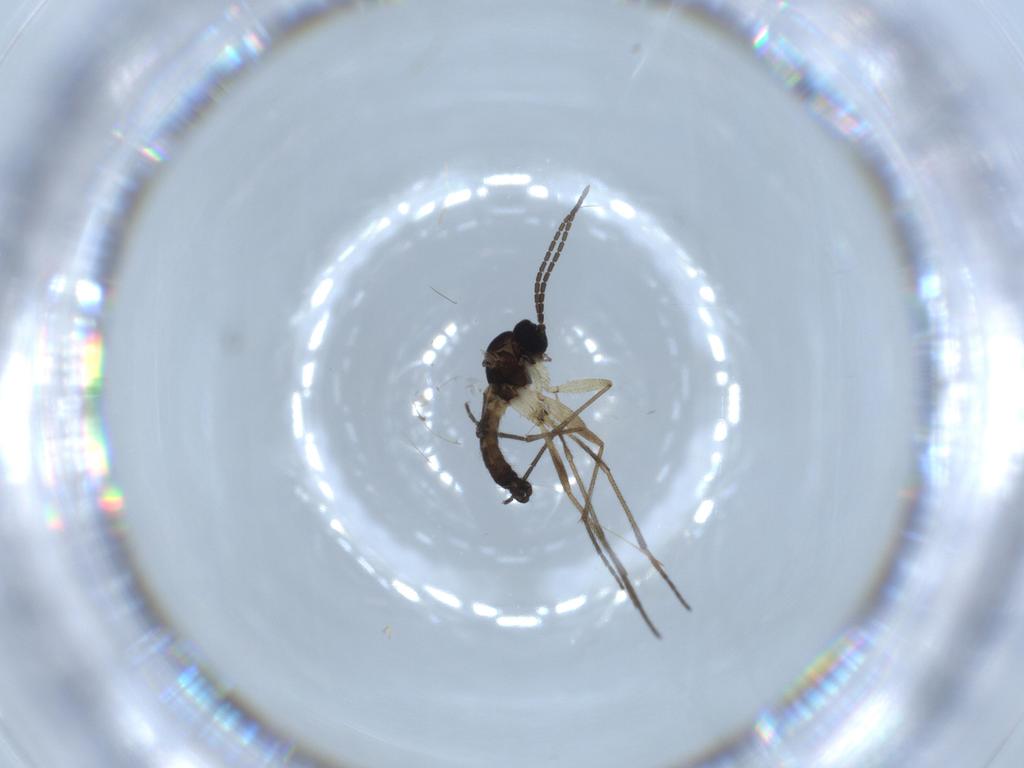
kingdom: Animalia
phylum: Arthropoda
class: Insecta
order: Diptera
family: Sciaridae
